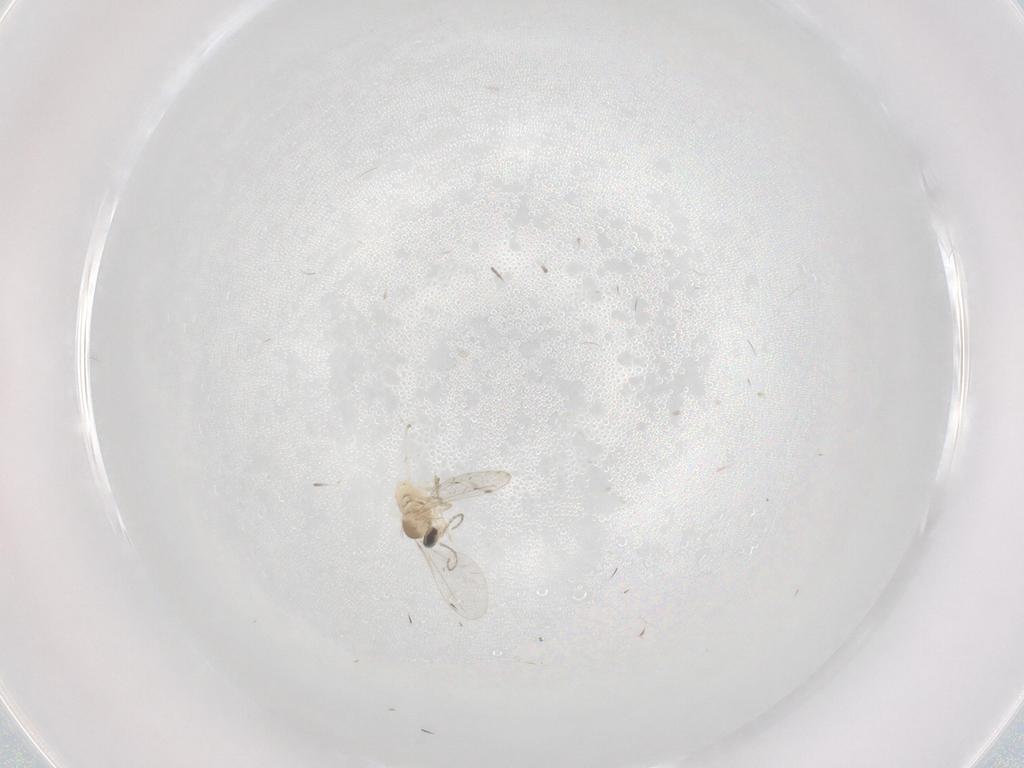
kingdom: Animalia
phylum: Arthropoda
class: Insecta
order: Diptera
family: Cecidomyiidae
